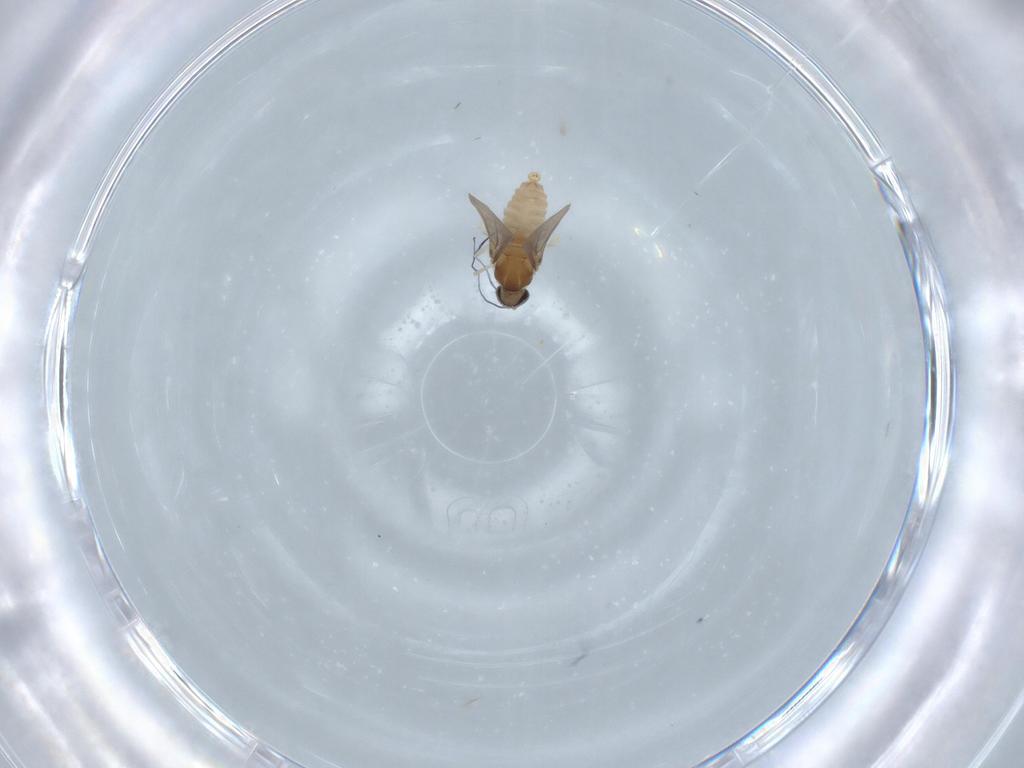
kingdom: Animalia
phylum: Arthropoda
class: Insecta
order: Diptera
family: Cecidomyiidae
